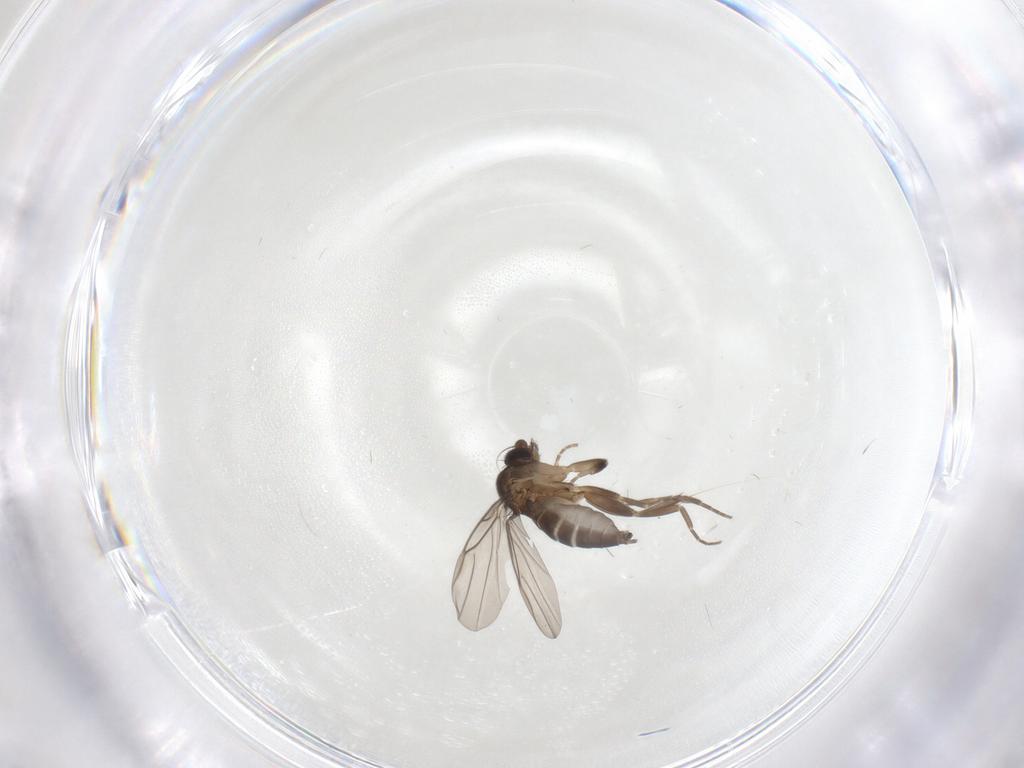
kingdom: Animalia
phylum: Arthropoda
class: Insecta
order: Diptera
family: Phoridae
